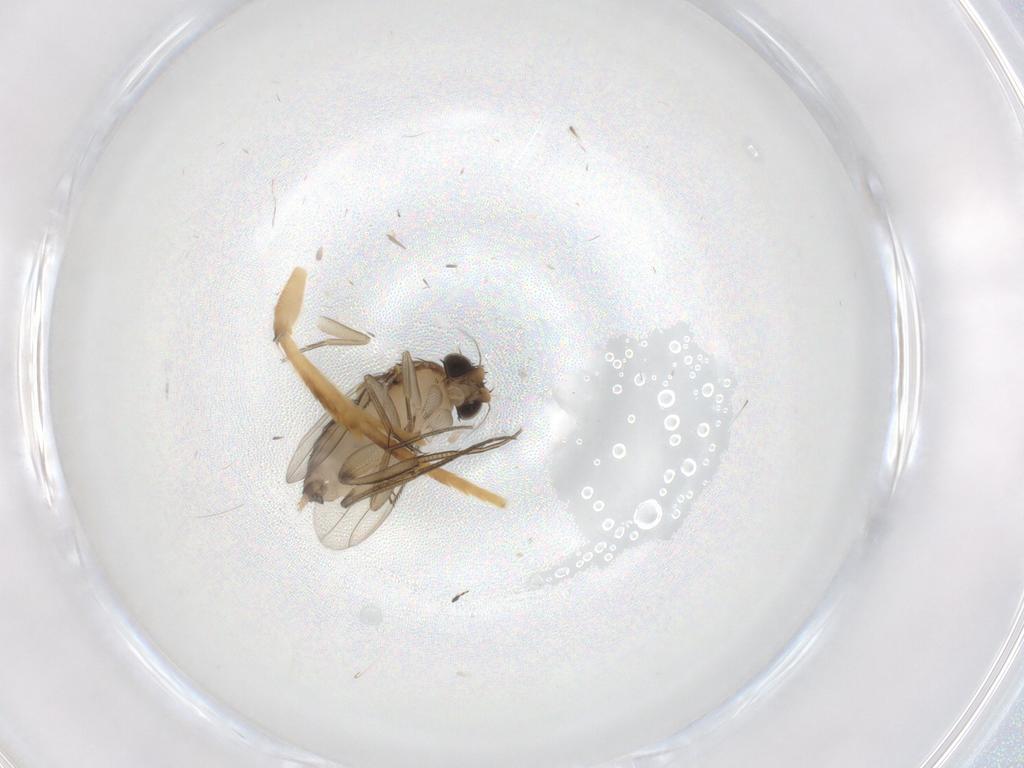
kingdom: Animalia
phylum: Arthropoda
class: Insecta
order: Diptera
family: Phoridae
